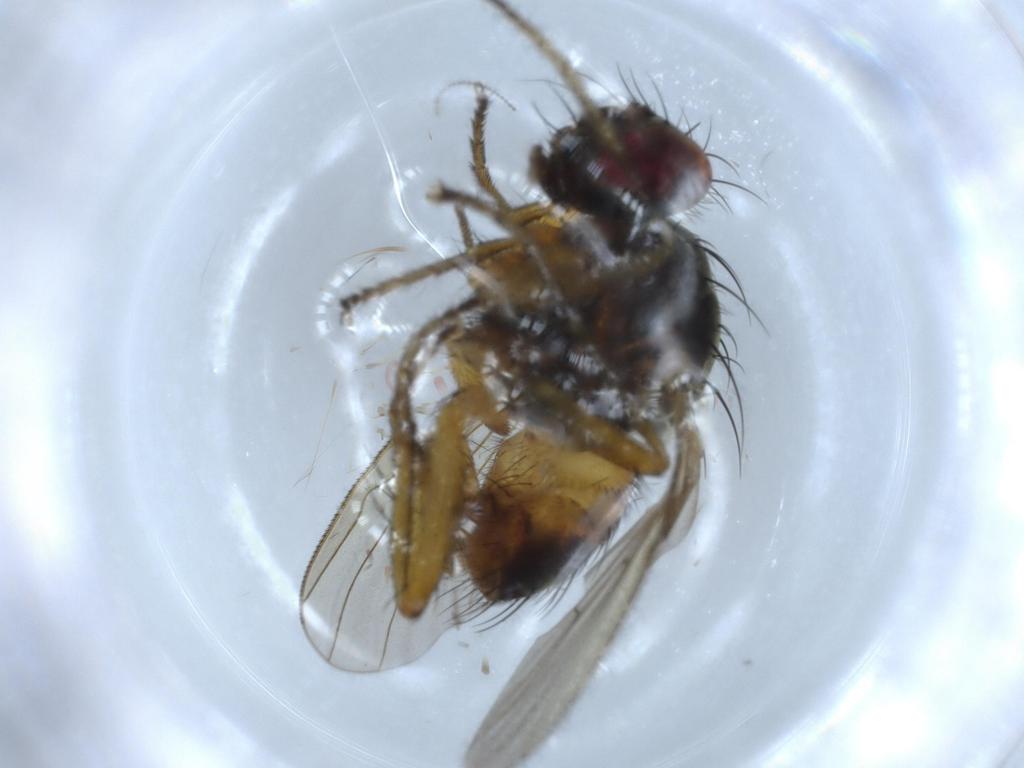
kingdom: Animalia
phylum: Arthropoda
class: Insecta
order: Diptera
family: Muscidae
